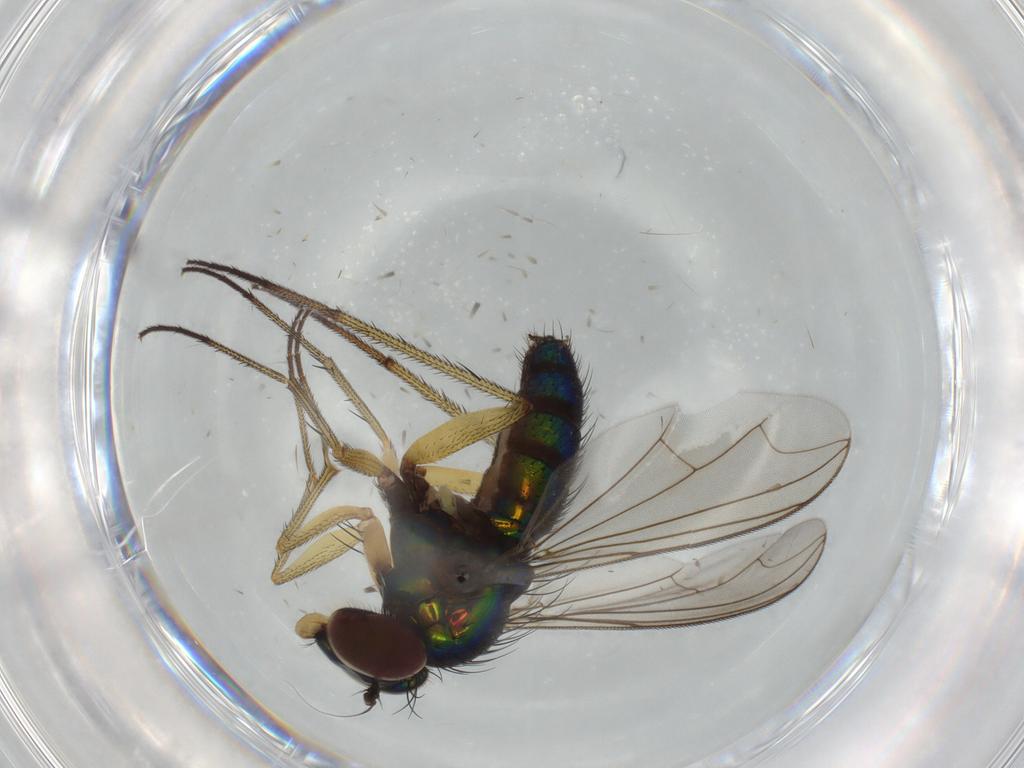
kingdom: Animalia
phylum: Arthropoda
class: Insecta
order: Diptera
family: Dolichopodidae
